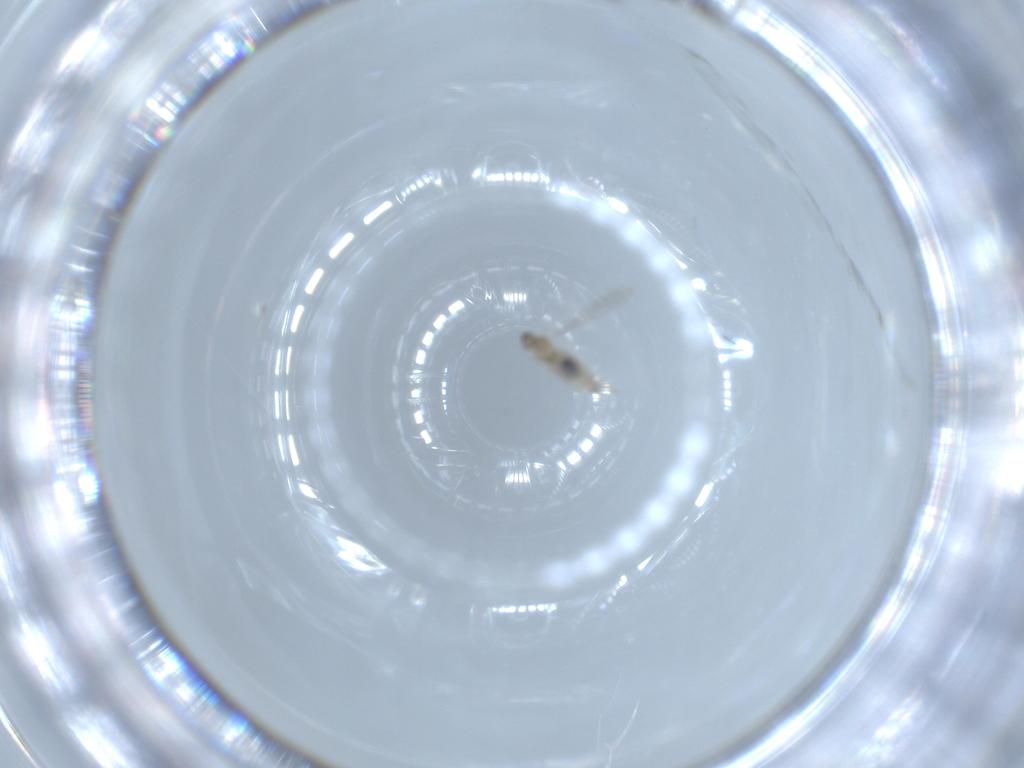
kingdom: Animalia
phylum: Arthropoda
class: Insecta
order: Diptera
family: Cecidomyiidae
